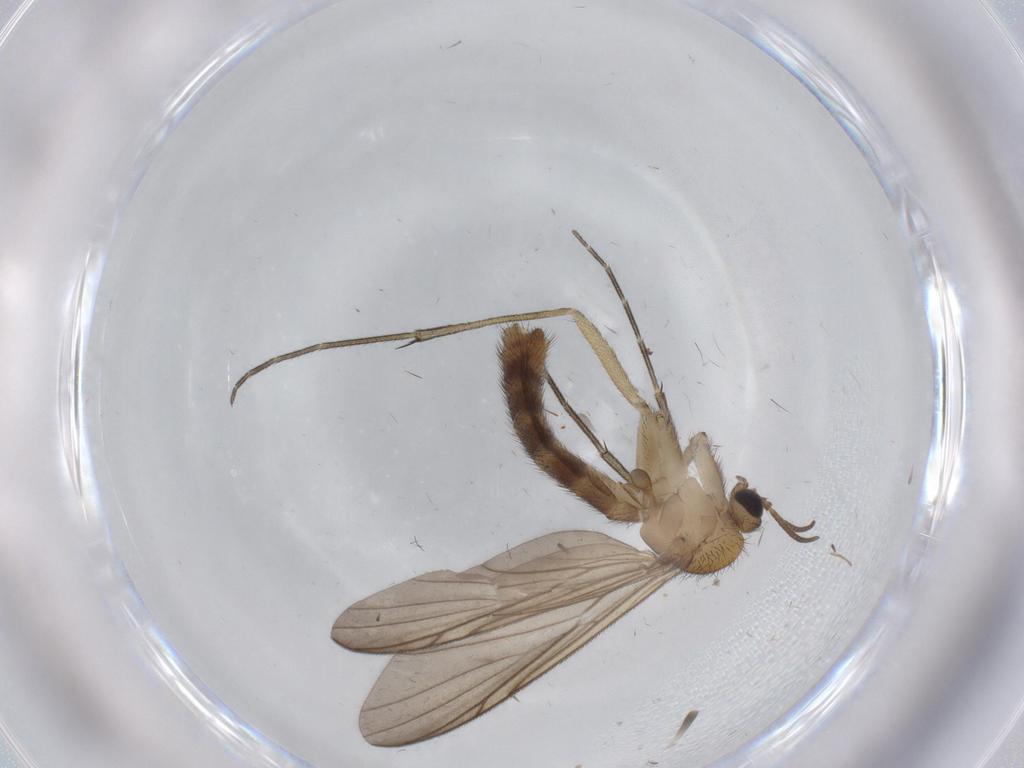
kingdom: Animalia
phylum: Arthropoda
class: Insecta
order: Diptera
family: Keroplatidae
